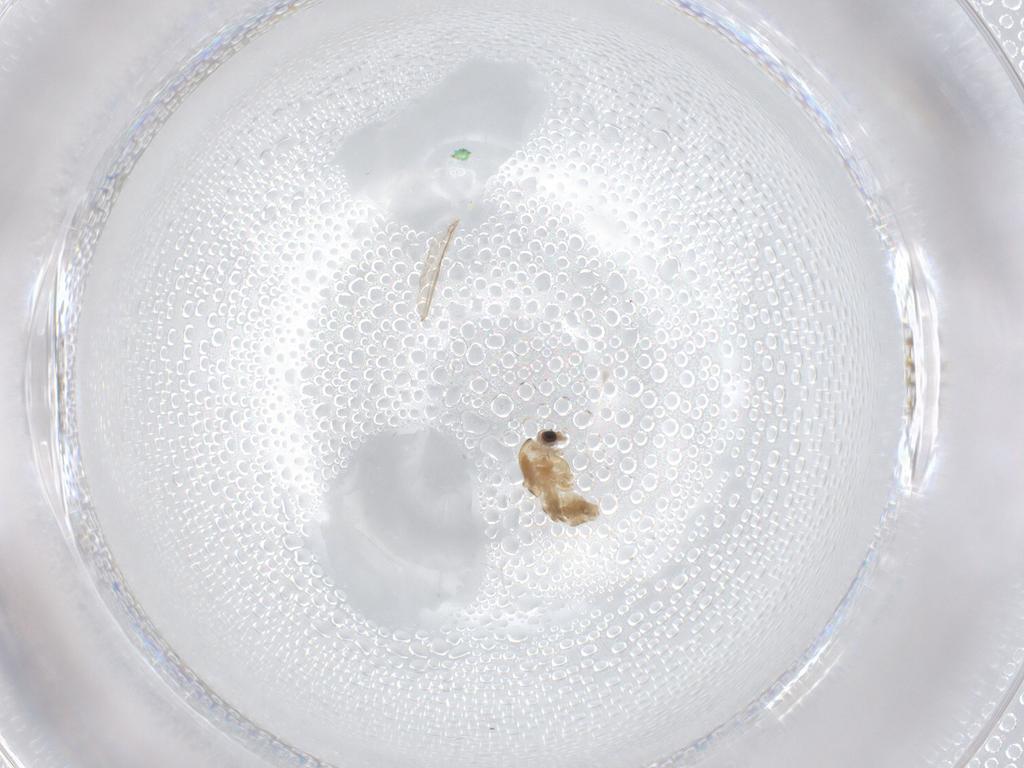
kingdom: Animalia
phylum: Arthropoda
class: Insecta
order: Diptera
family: Chironomidae
